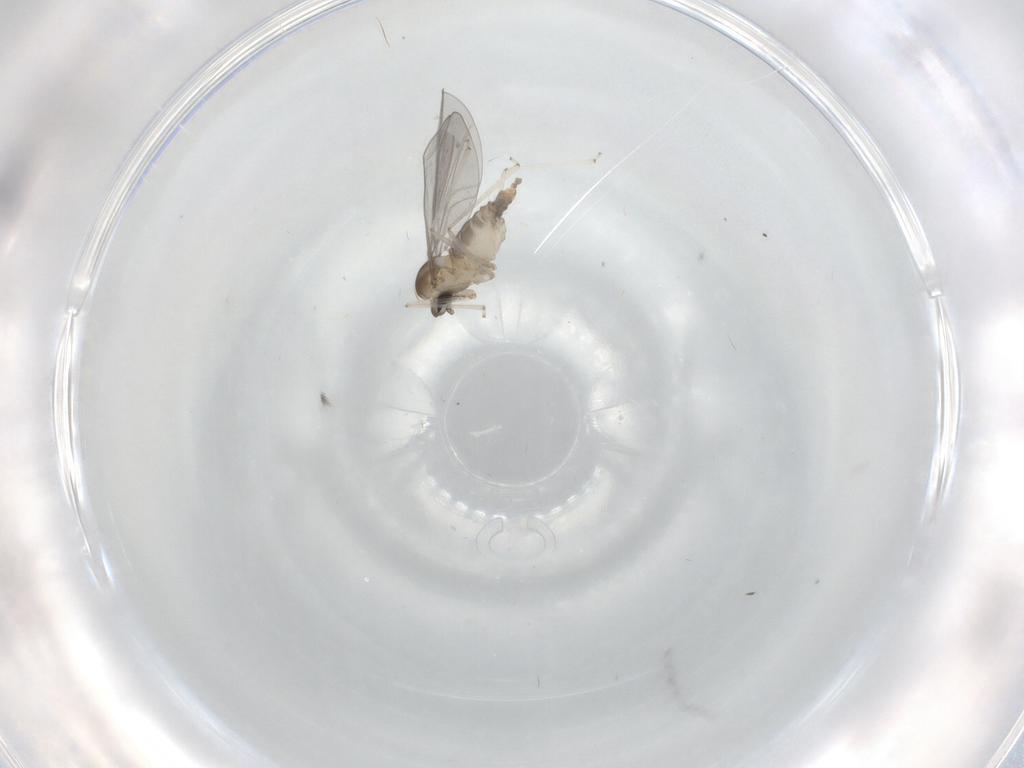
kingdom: Animalia
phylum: Arthropoda
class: Insecta
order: Diptera
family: Cecidomyiidae
